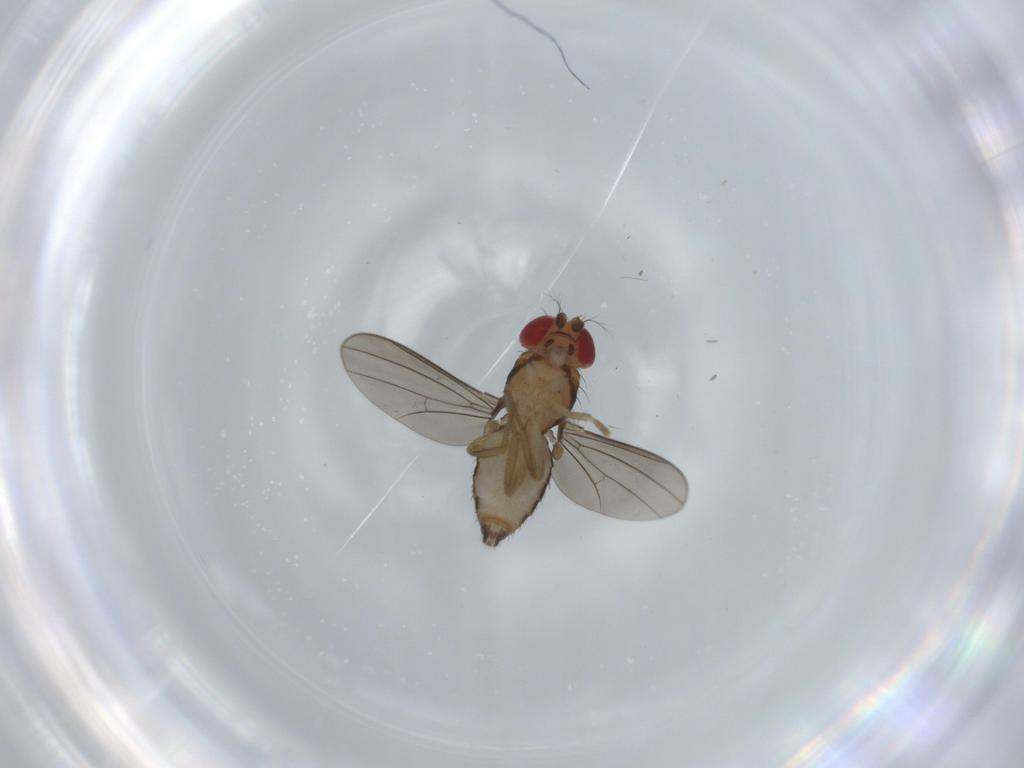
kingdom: Animalia
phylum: Arthropoda
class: Insecta
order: Diptera
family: Drosophilidae
